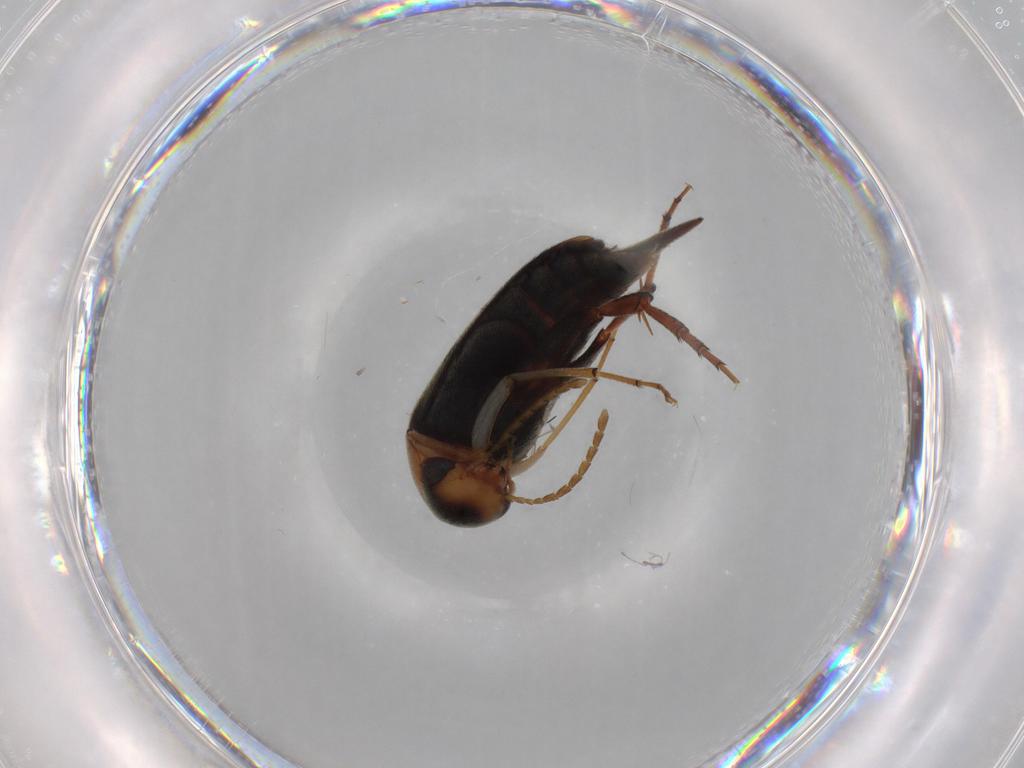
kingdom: Animalia
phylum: Arthropoda
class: Insecta
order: Coleoptera
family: Mordellidae
